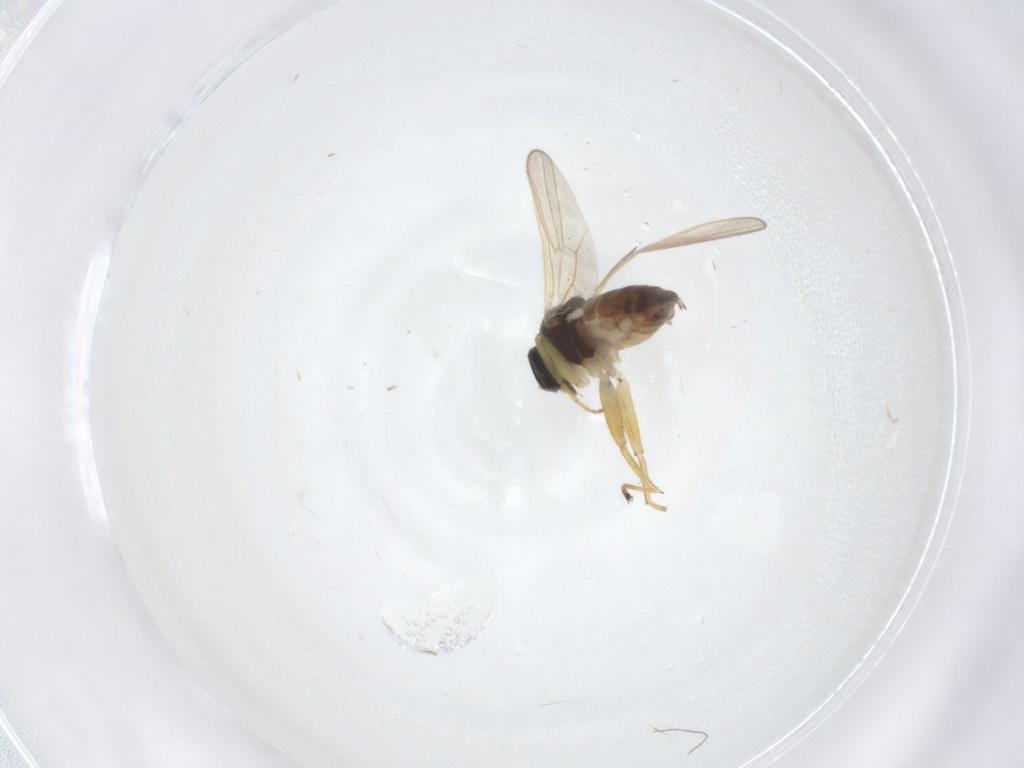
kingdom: Animalia
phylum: Arthropoda
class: Insecta
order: Diptera
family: Hybotidae
